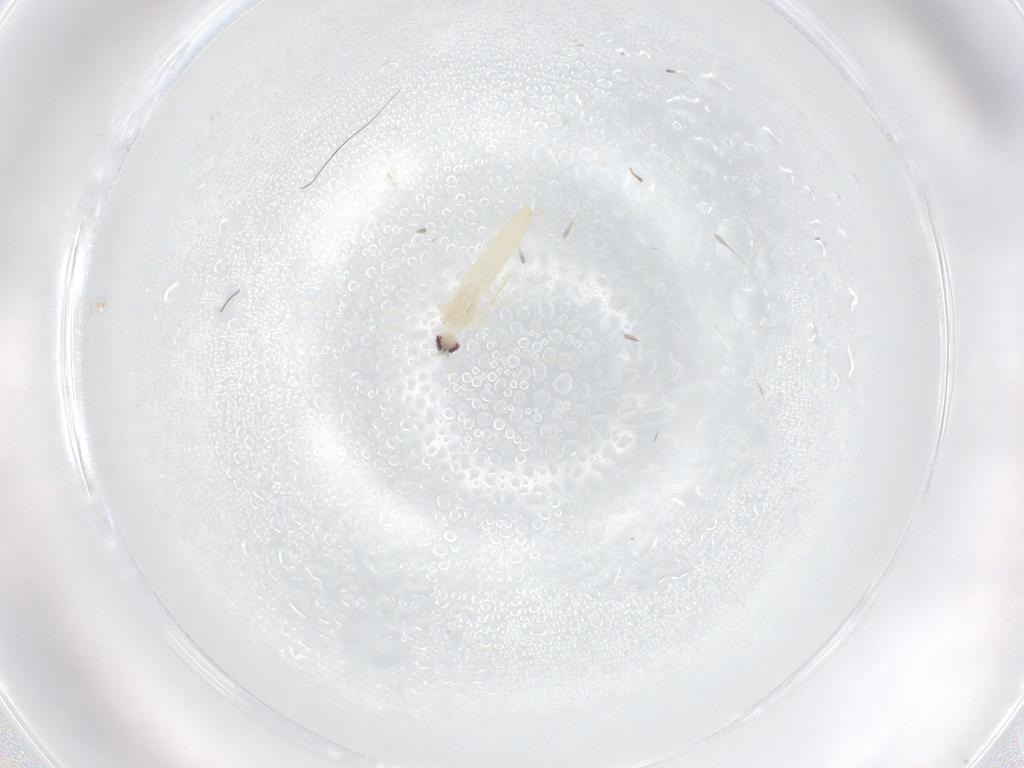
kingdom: Animalia
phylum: Arthropoda
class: Insecta
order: Diptera
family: Cecidomyiidae
